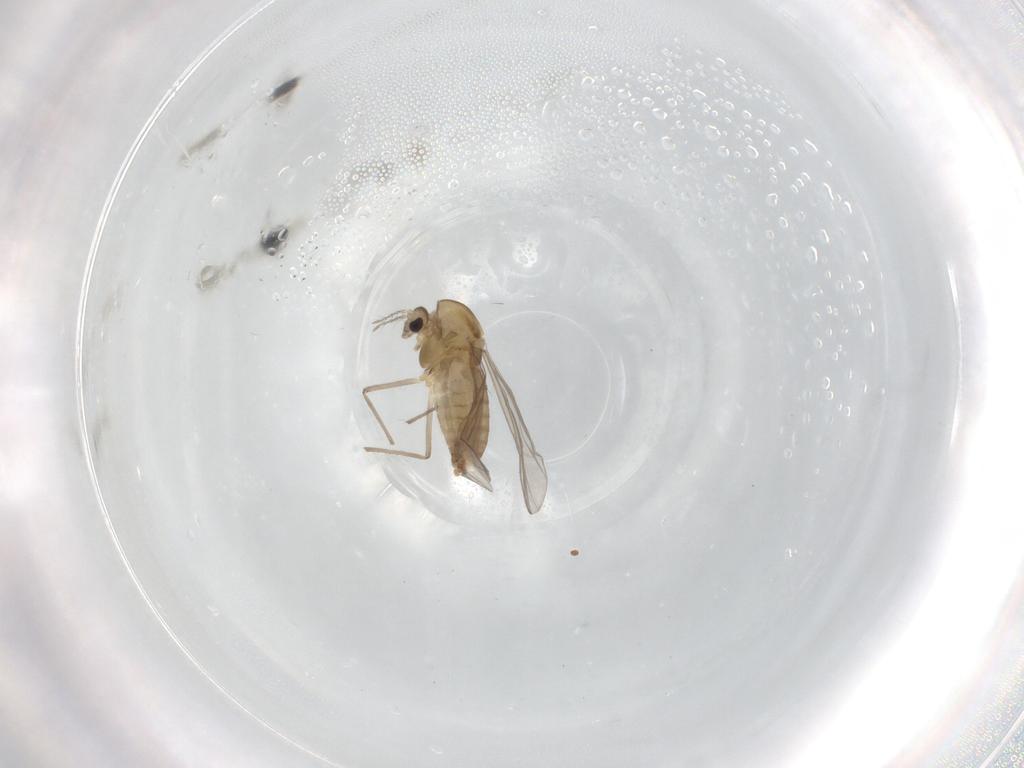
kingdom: Animalia
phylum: Arthropoda
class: Insecta
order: Diptera
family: Chironomidae
